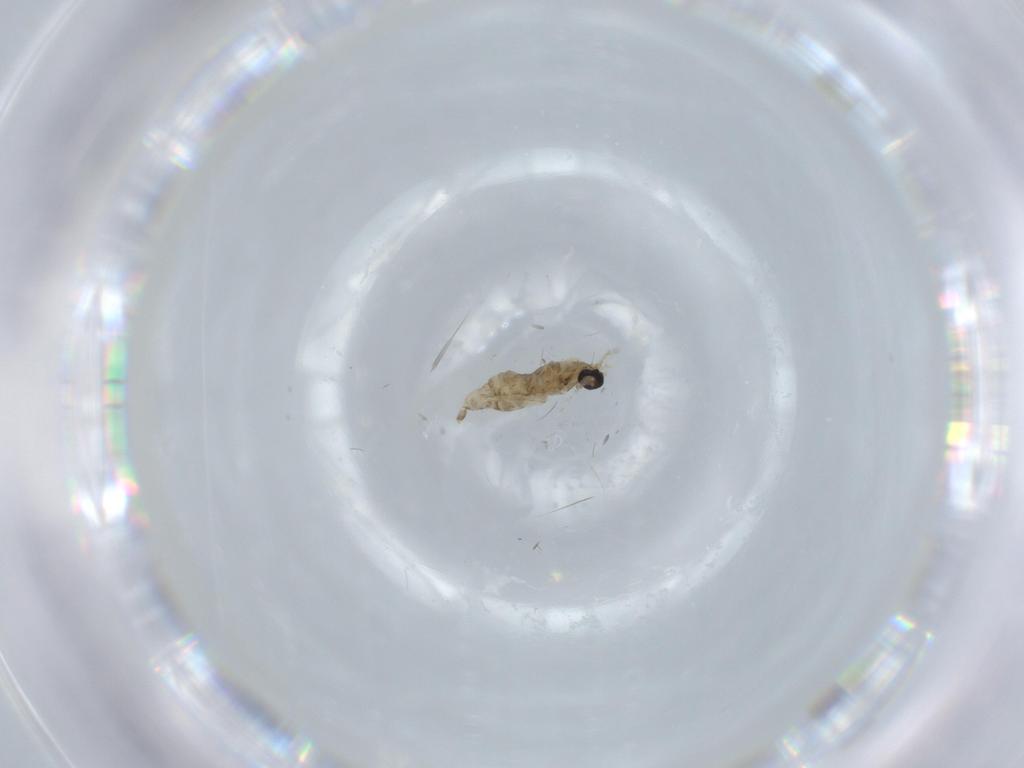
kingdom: Animalia
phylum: Arthropoda
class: Insecta
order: Diptera
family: Cecidomyiidae
